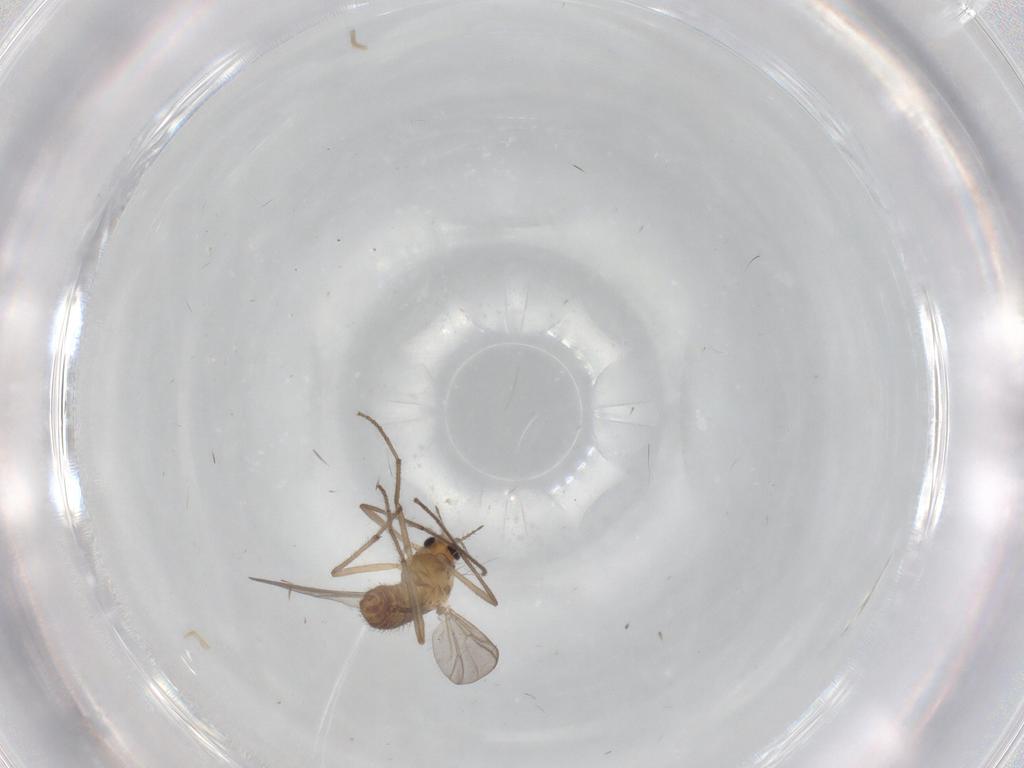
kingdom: Animalia
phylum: Arthropoda
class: Insecta
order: Diptera
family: Chironomidae
